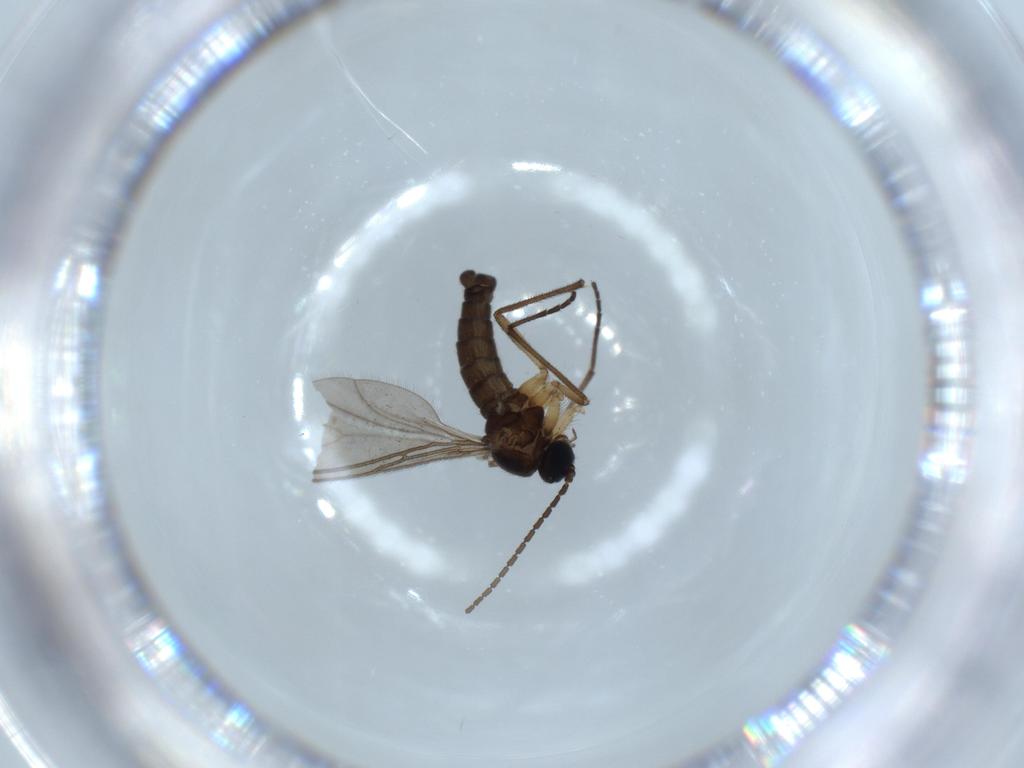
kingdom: Animalia
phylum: Arthropoda
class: Insecta
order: Diptera
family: Sciaridae
